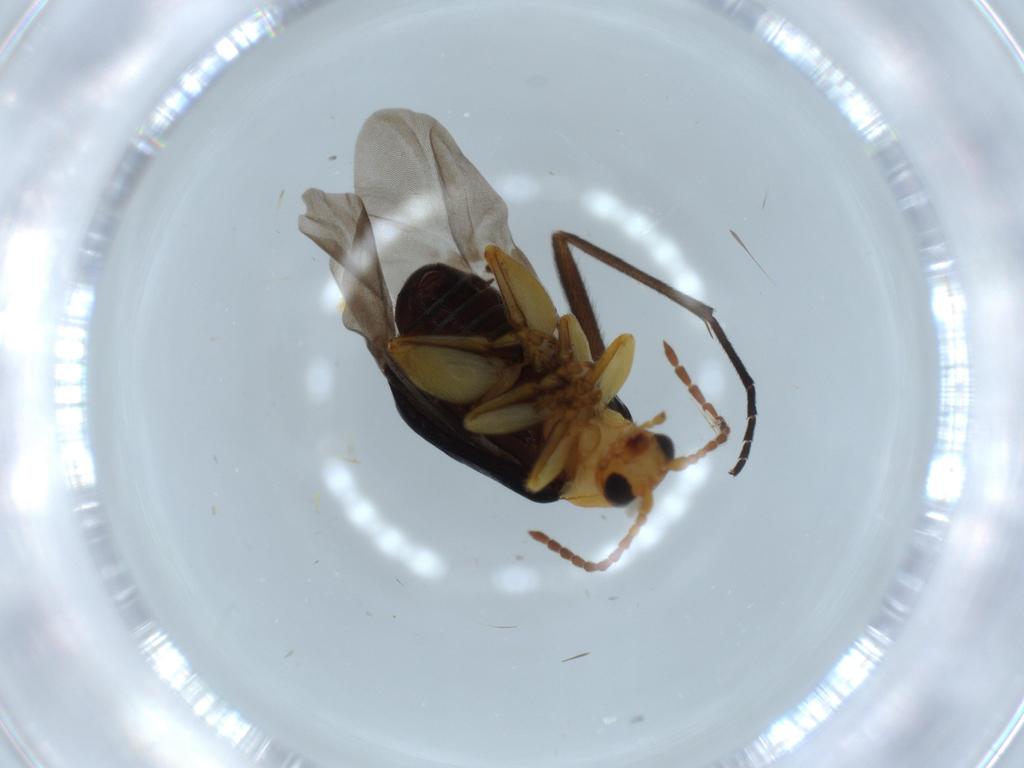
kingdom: Animalia
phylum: Arthropoda
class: Insecta
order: Coleoptera
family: Chrysomelidae
